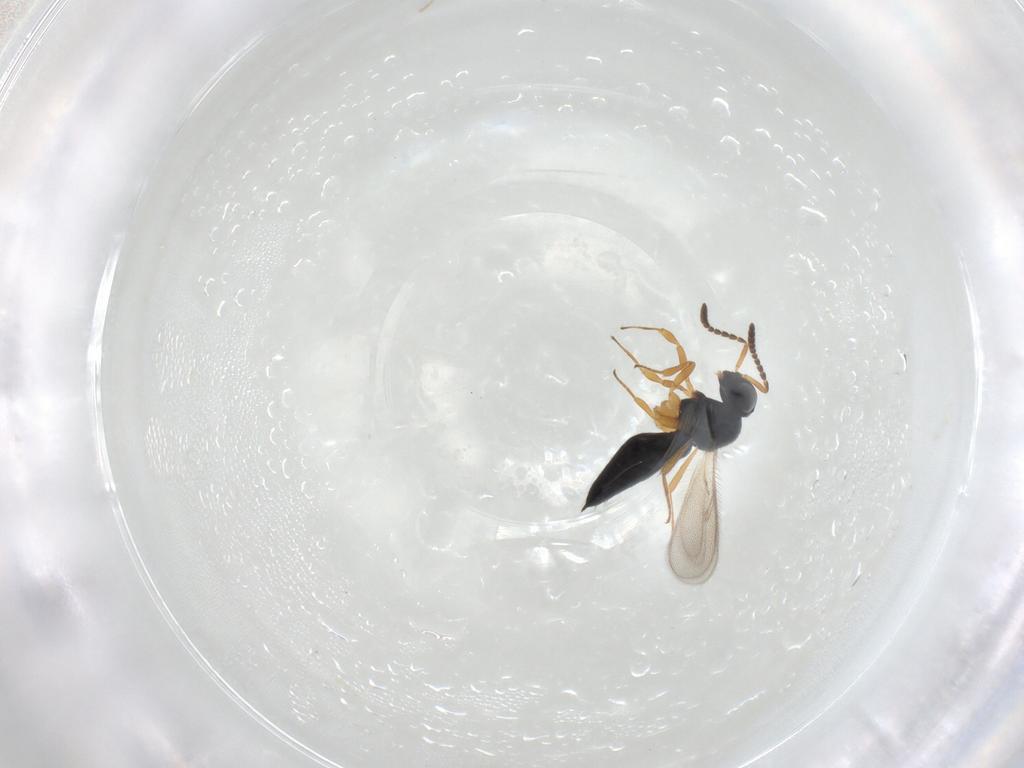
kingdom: Animalia
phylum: Arthropoda
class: Insecta
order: Hymenoptera
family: Scelionidae
